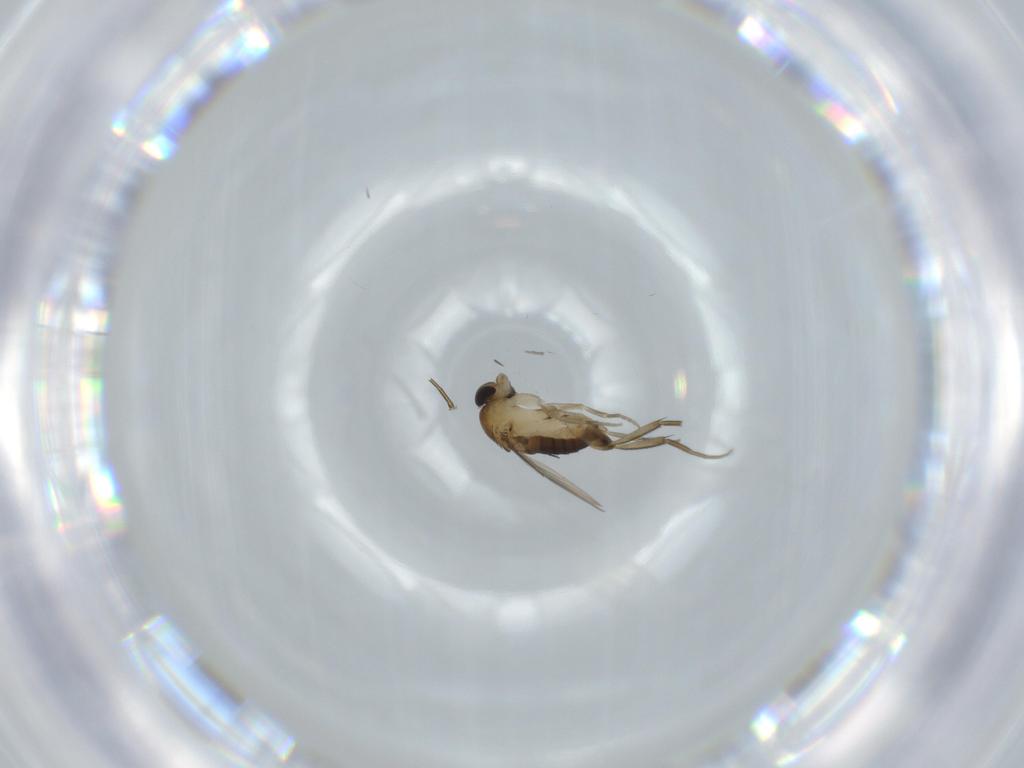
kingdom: Animalia
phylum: Arthropoda
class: Insecta
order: Diptera
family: Phoridae
